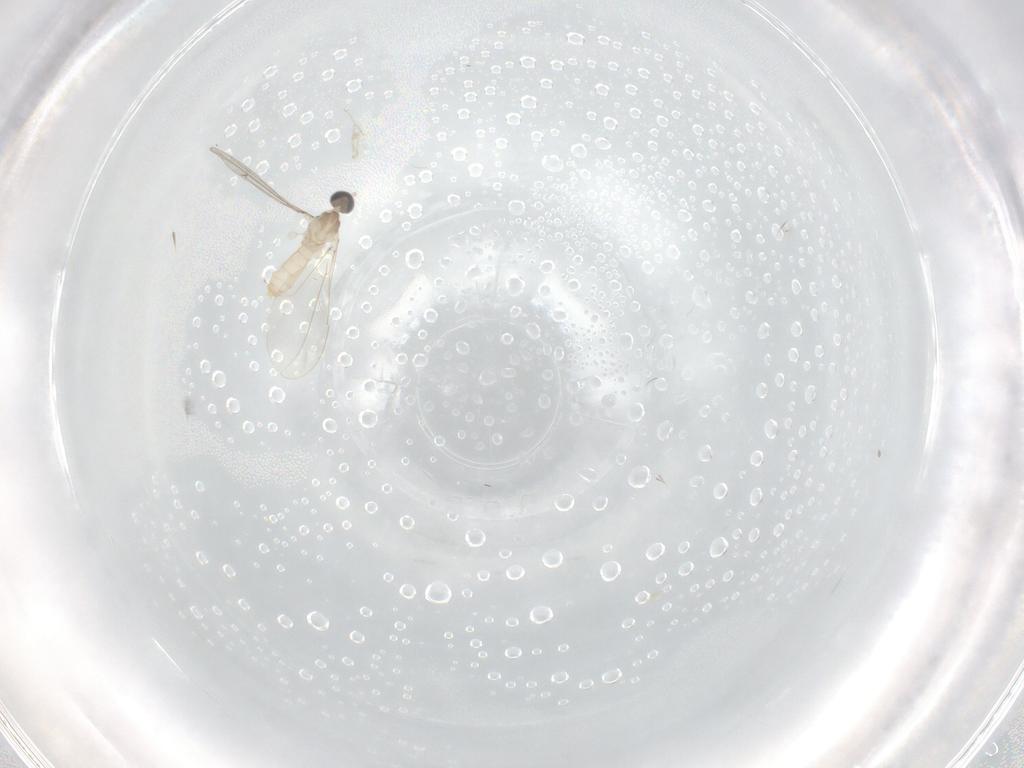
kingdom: Animalia
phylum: Arthropoda
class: Insecta
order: Diptera
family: Cecidomyiidae
